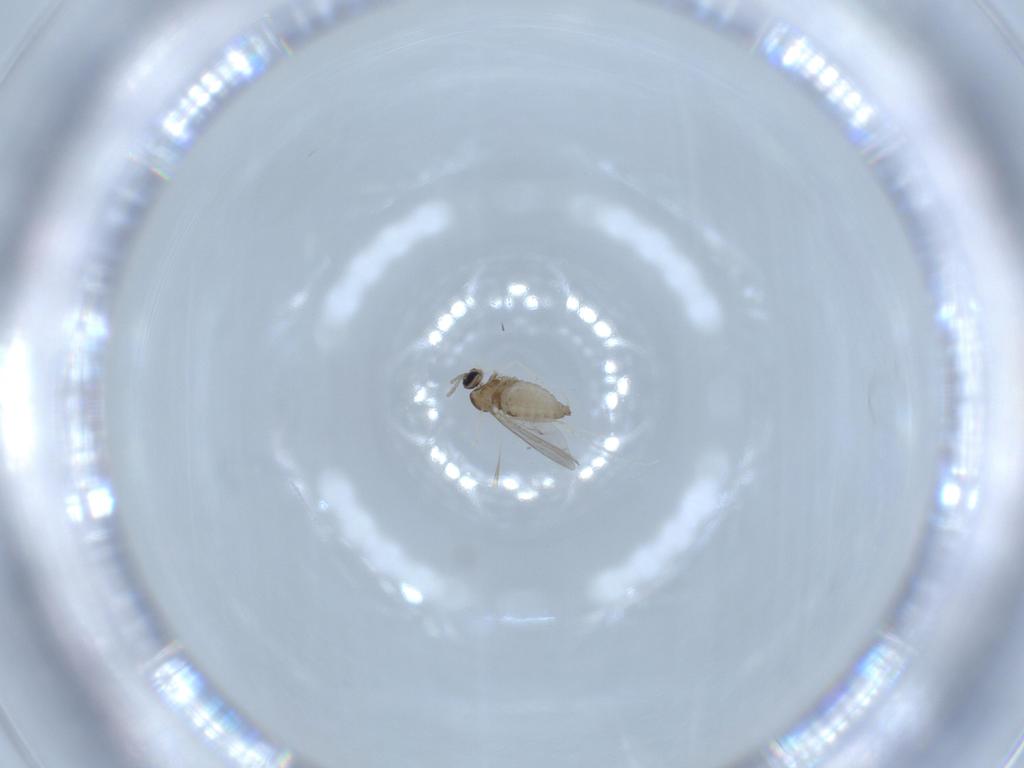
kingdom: Animalia
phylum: Arthropoda
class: Insecta
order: Diptera
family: Cecidomyiidae
